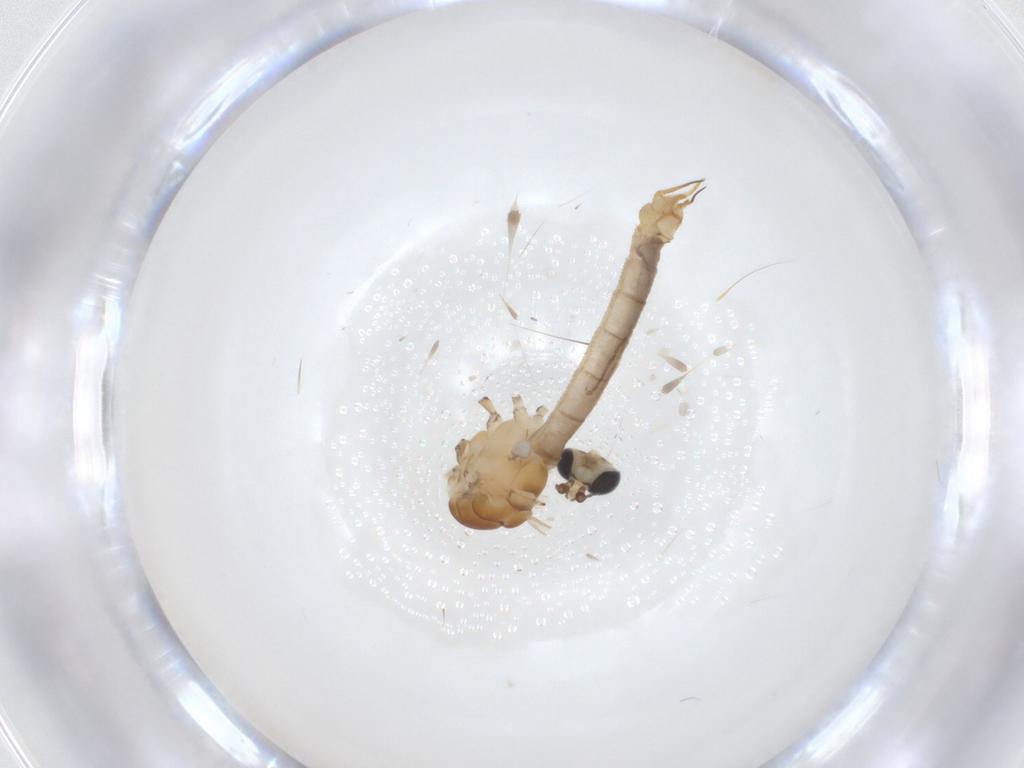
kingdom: Animalia
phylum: Arthropoda
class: Insecta
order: Diptera
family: Limoniidae
